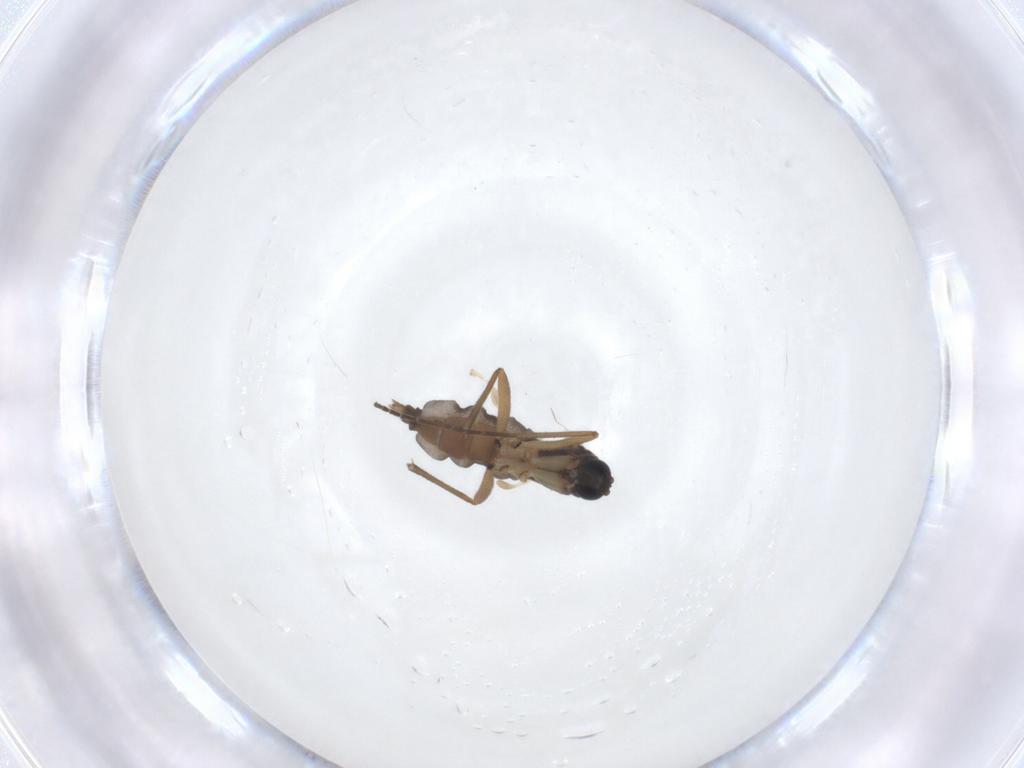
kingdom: Animalia
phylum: Arthropoda
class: Insecta
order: Diptera
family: Sciaridae
